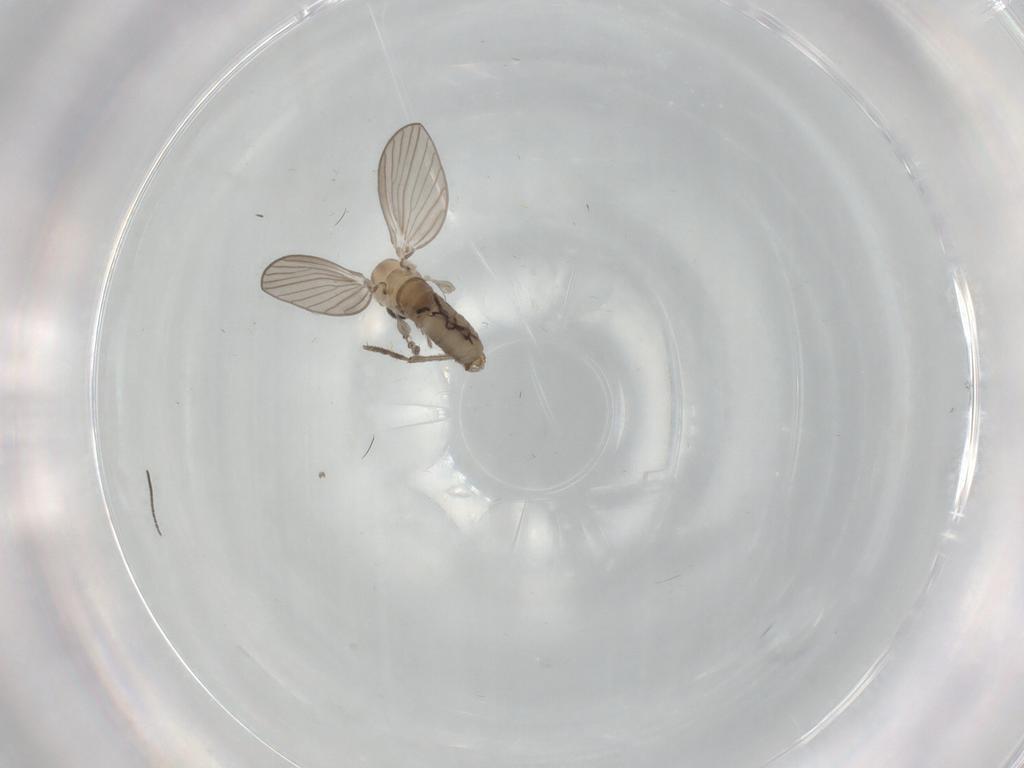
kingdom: Animalia
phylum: Arthropoda
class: Insecta
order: Diptera
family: Psychodidae
